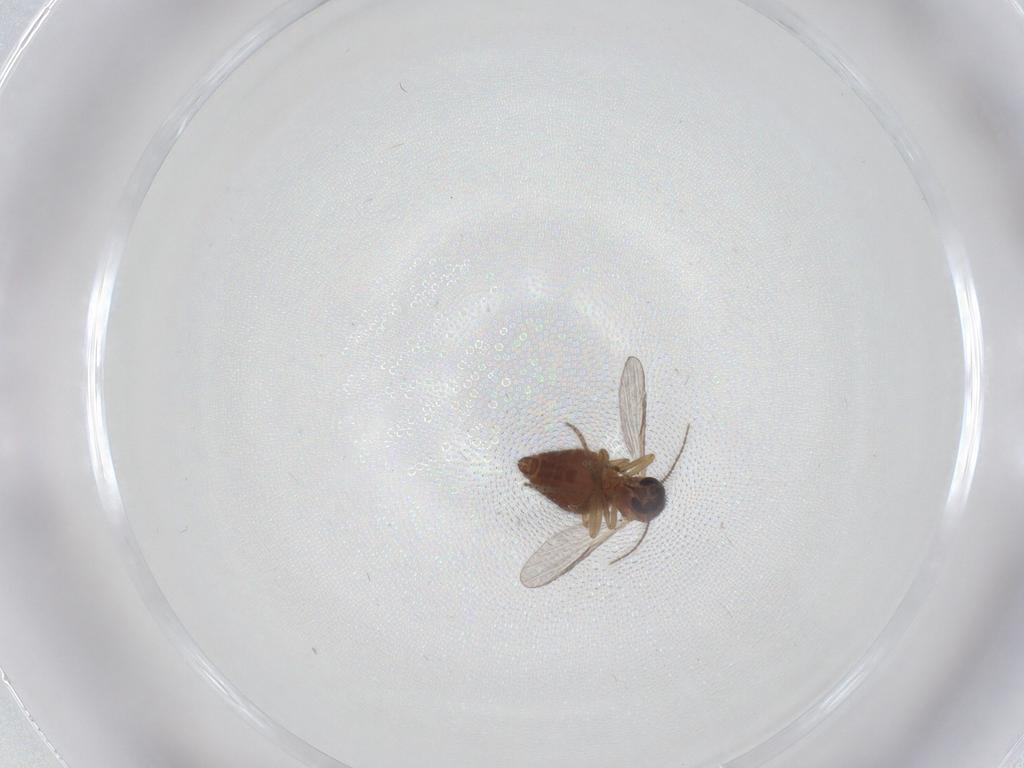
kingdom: Animalia
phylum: Arthropoda
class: Insecta
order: Diptera
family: Ceratopogonidae
